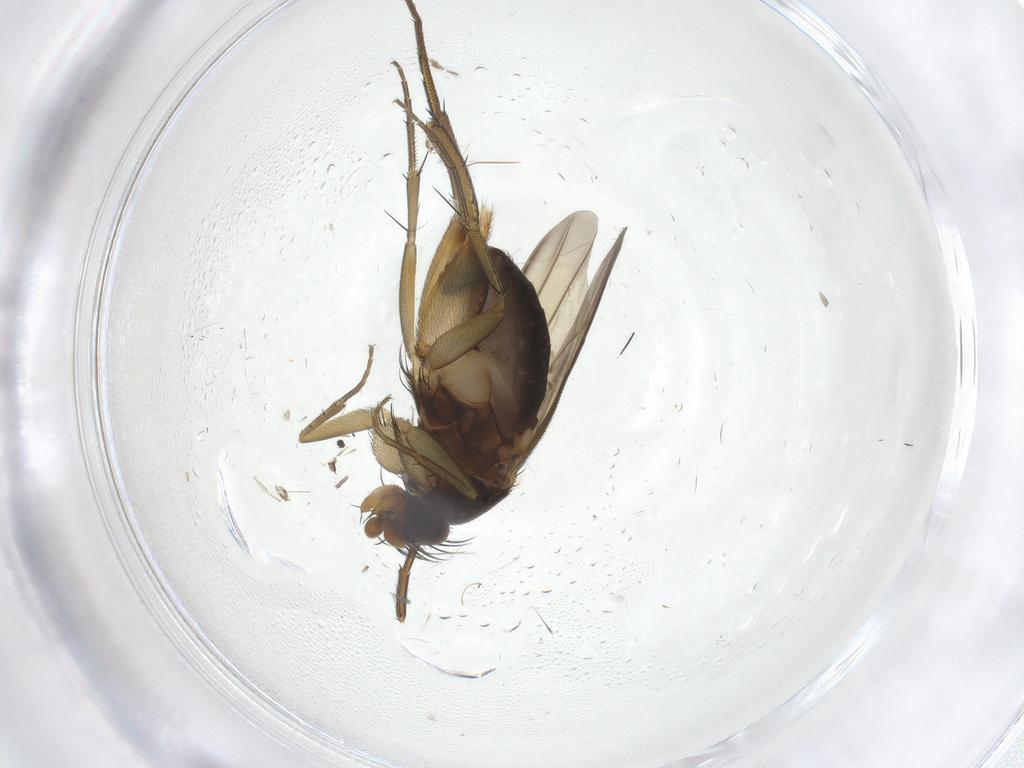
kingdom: Animalia
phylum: Arthropoda
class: Insecta
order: Diptera
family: Phoridae
